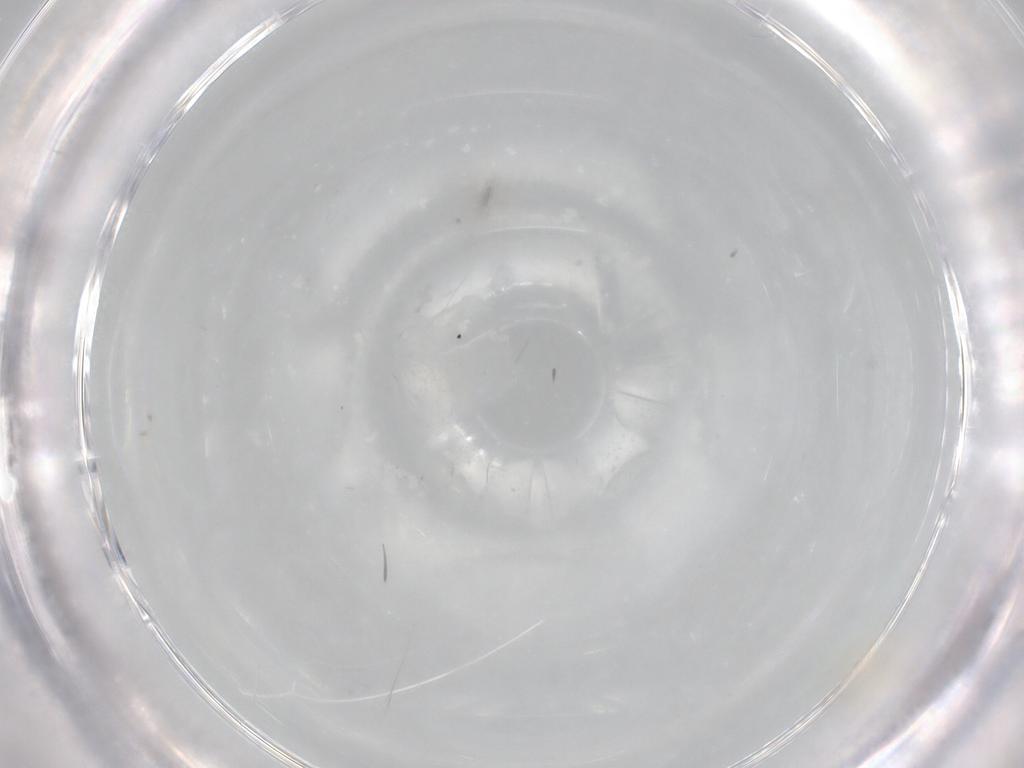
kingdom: Animalia
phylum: Arthropoda
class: Insecta
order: Diptera
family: Cecidomyiidae
